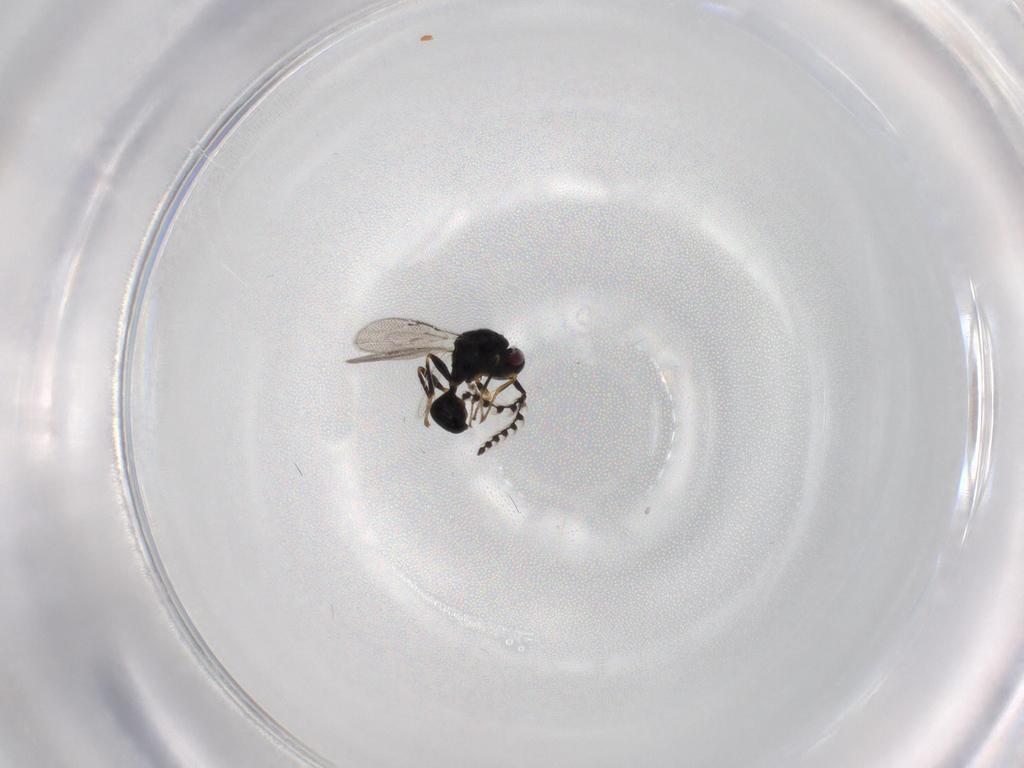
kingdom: Animalia
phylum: Arthropoda
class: Insecta
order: Hymenoptera
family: Eurytomidae
